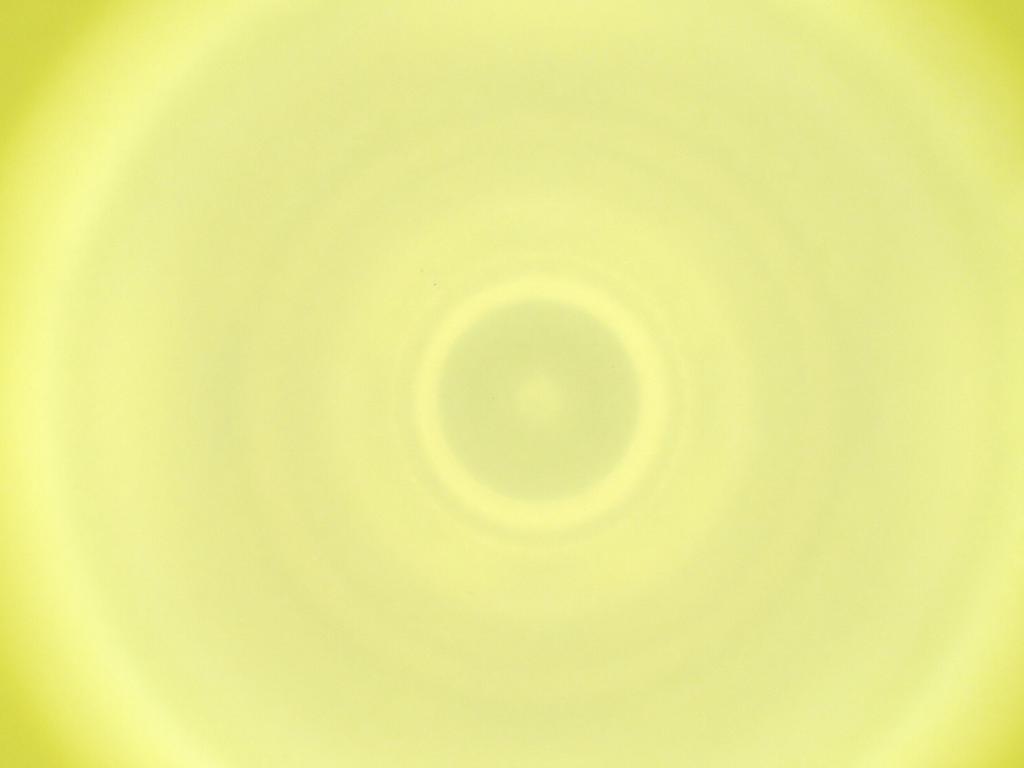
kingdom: Animalia
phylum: Arthropoda
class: Insecta
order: Diptera
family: Cecidomyiidae
